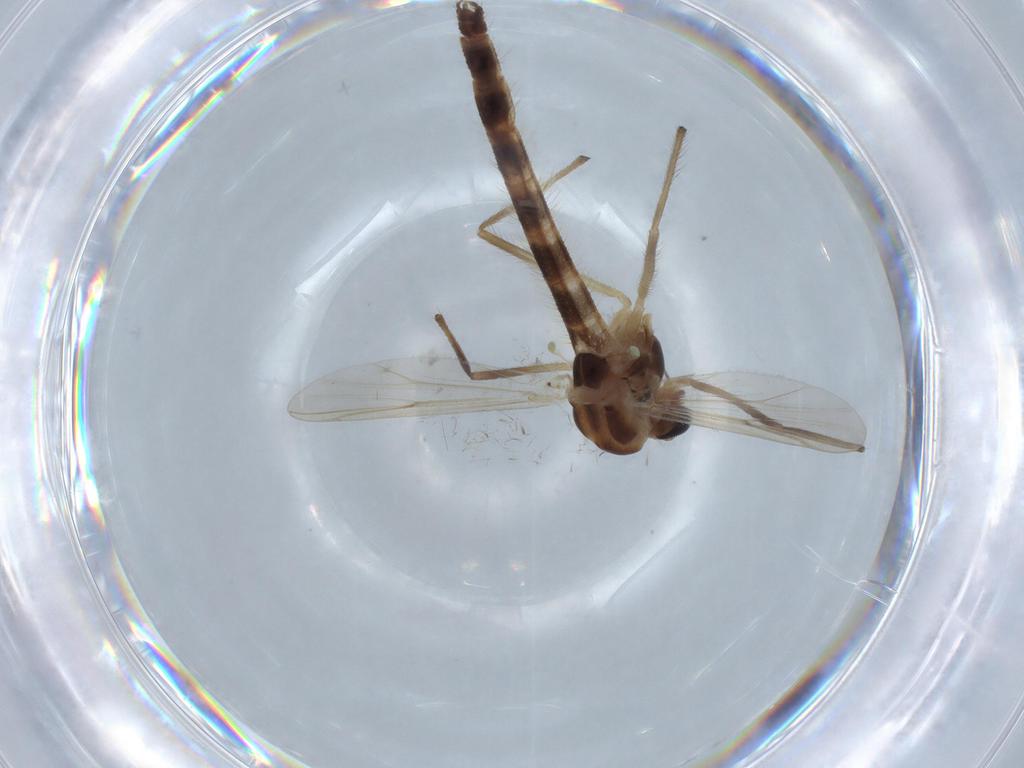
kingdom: Animalia
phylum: Arthropoda
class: Insecta
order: Diptera
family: Chironomidae
